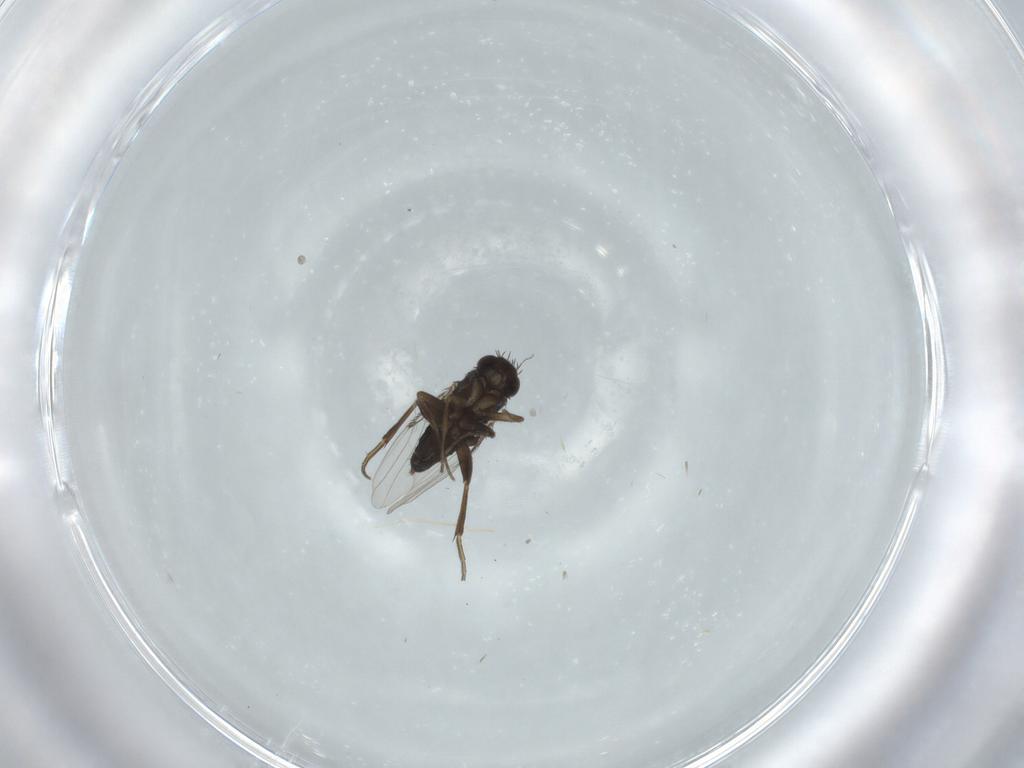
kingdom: Animalia
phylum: Arthropoda
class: Insecta
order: Diptera
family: Phoridae
